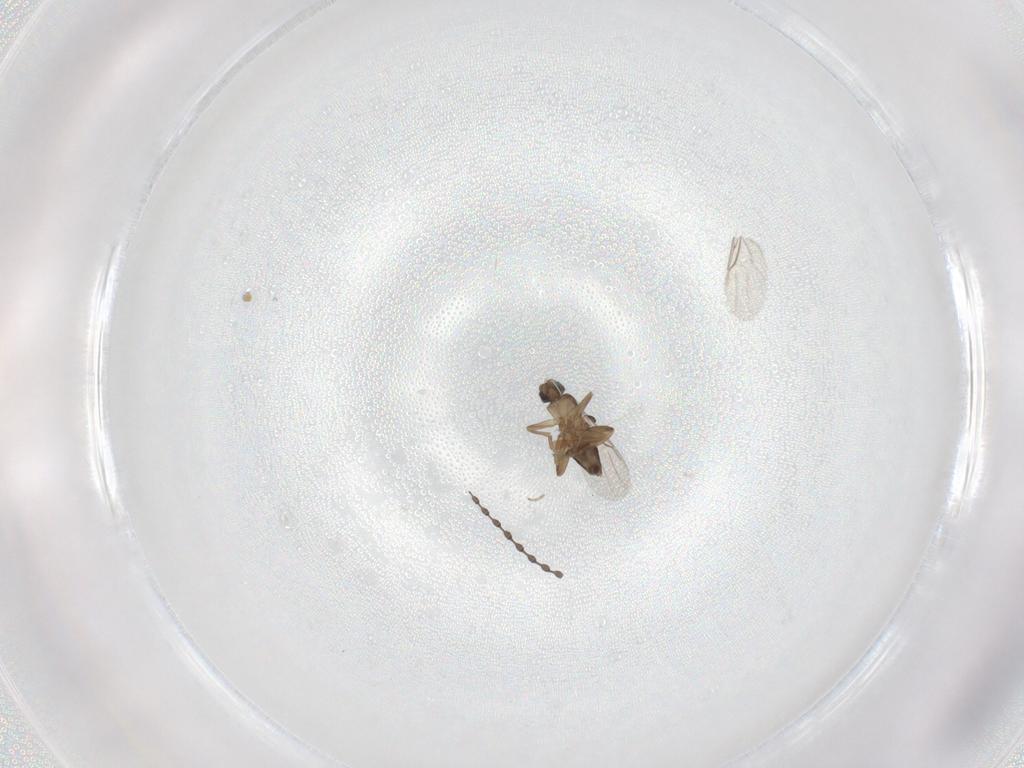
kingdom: Animalia
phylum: Arthropoda
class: Insecta
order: Diptera
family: Cecidomyiidae
